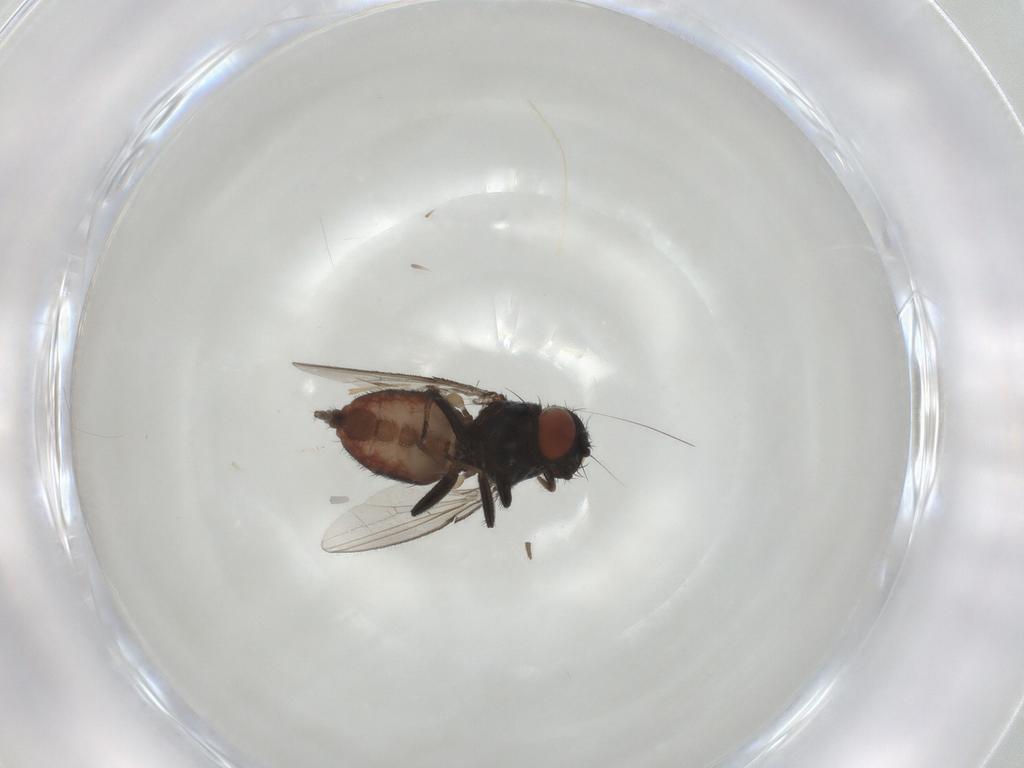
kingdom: Animalia
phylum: Arthropoda
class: Insecta
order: Diptera
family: Milichiidae
